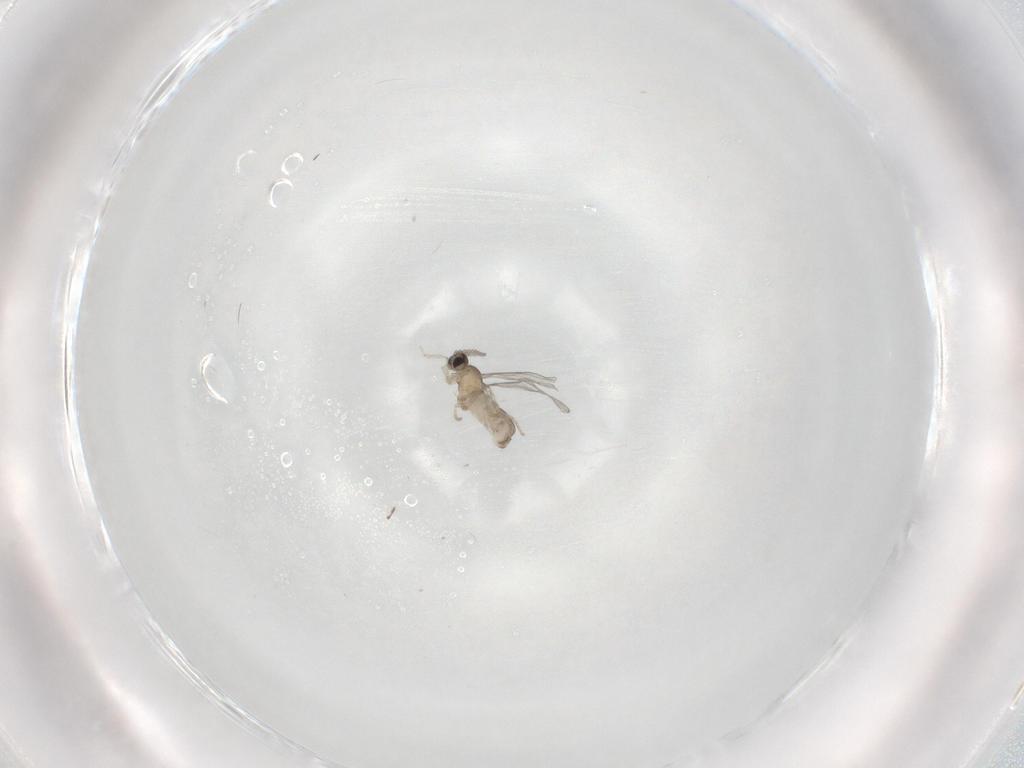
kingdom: Animalia
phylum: Arthropoda
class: Insecta
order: Diptera
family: Cecidomyiidae
